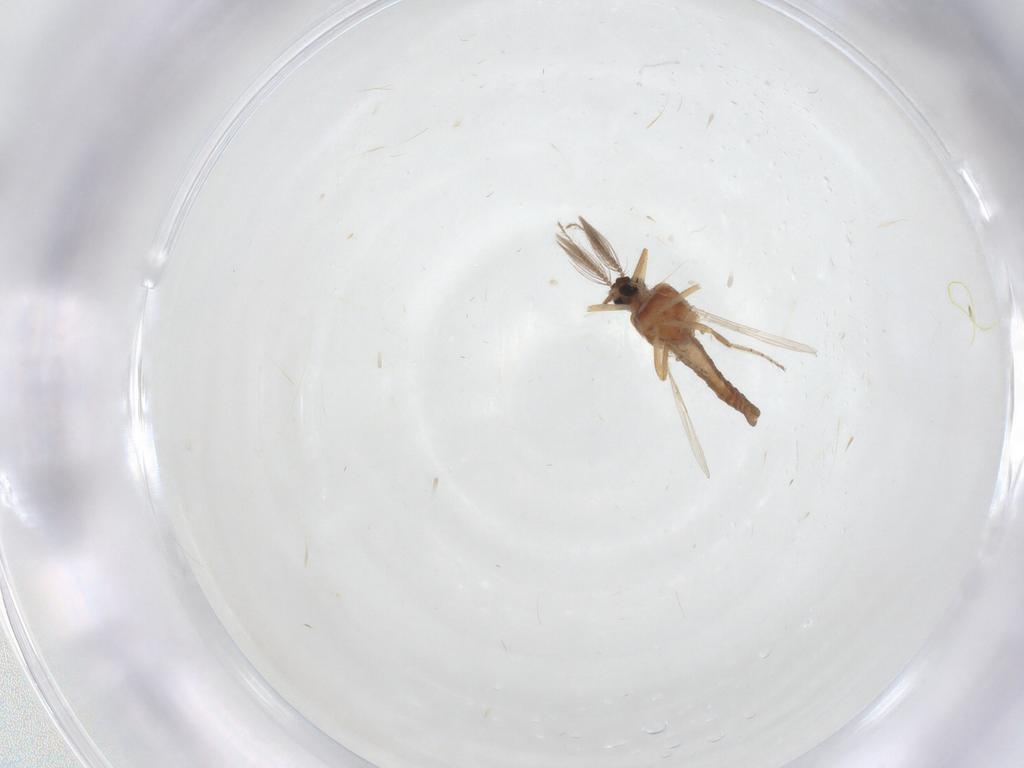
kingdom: Animalia
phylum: Arthropoda
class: Insecta
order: Diptera
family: Ceratopogonidae
